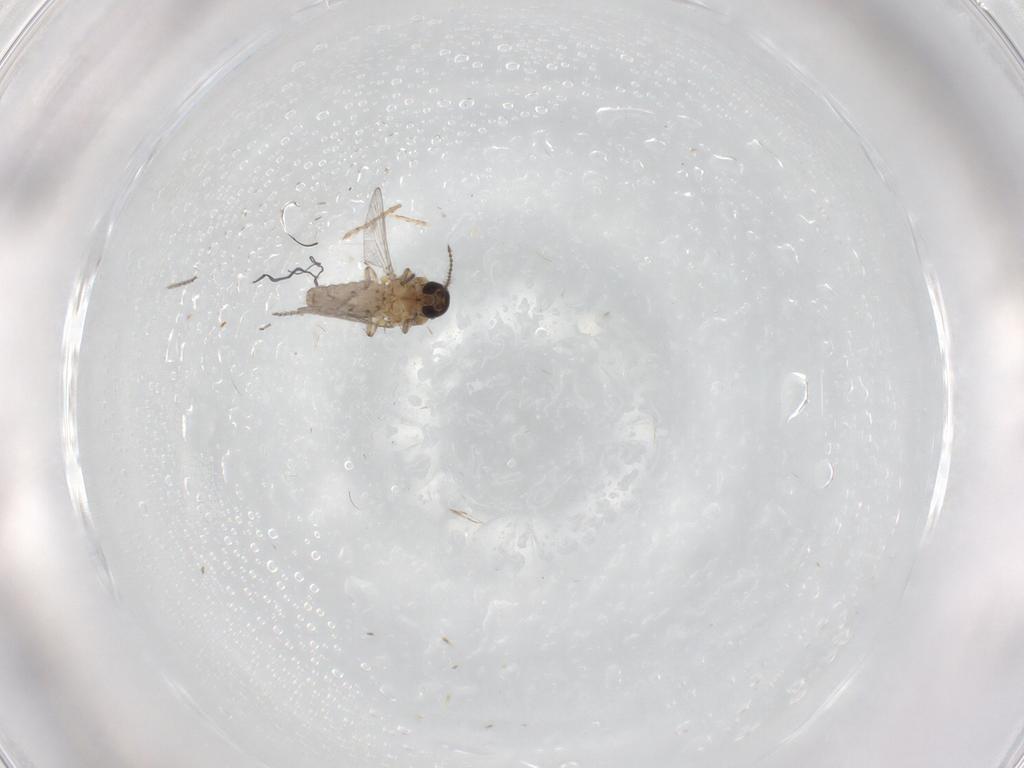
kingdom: Animalia
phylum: Arthropoda
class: Insecta
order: Diptera
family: Ceratopogonidae
